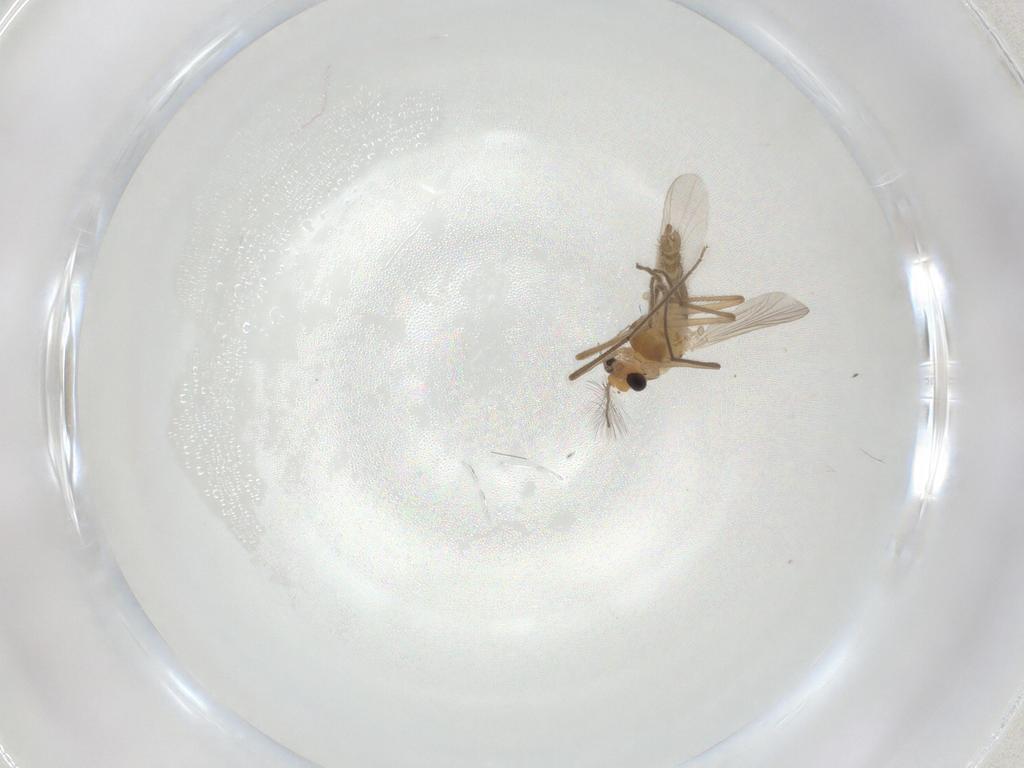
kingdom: Animalia
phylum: Arthropoda
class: Insecta
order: Diptera
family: Chironomidae
